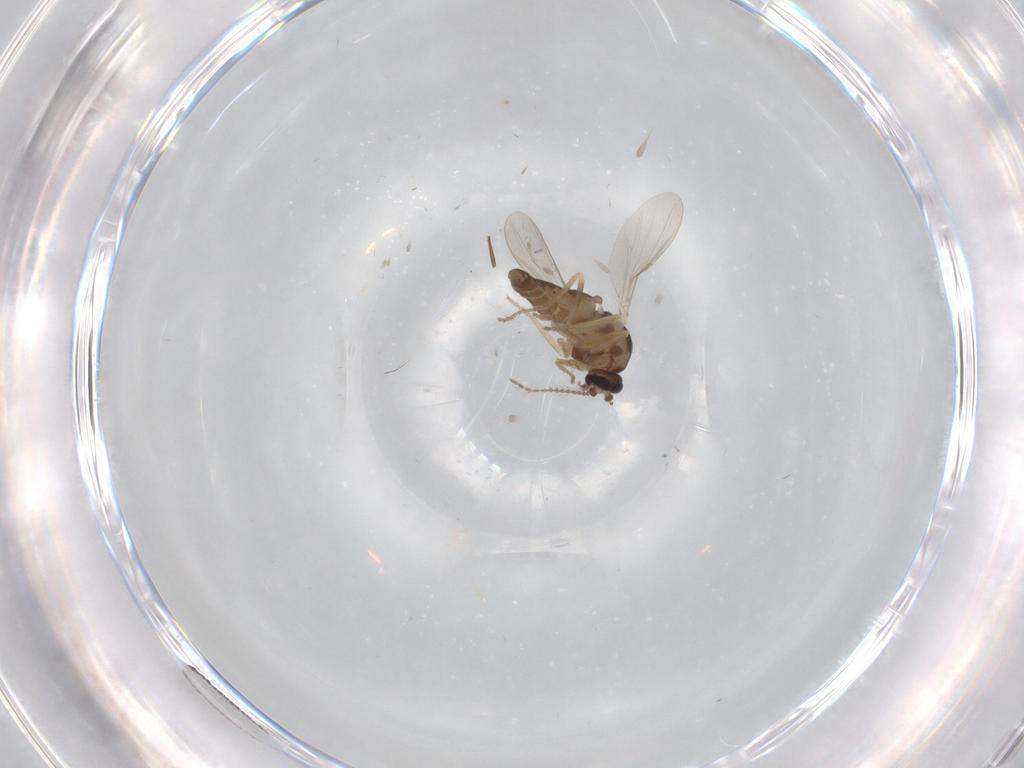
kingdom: Animalia
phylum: Arthropoda
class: Insecta
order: Diptera
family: Ceratopogonidae
